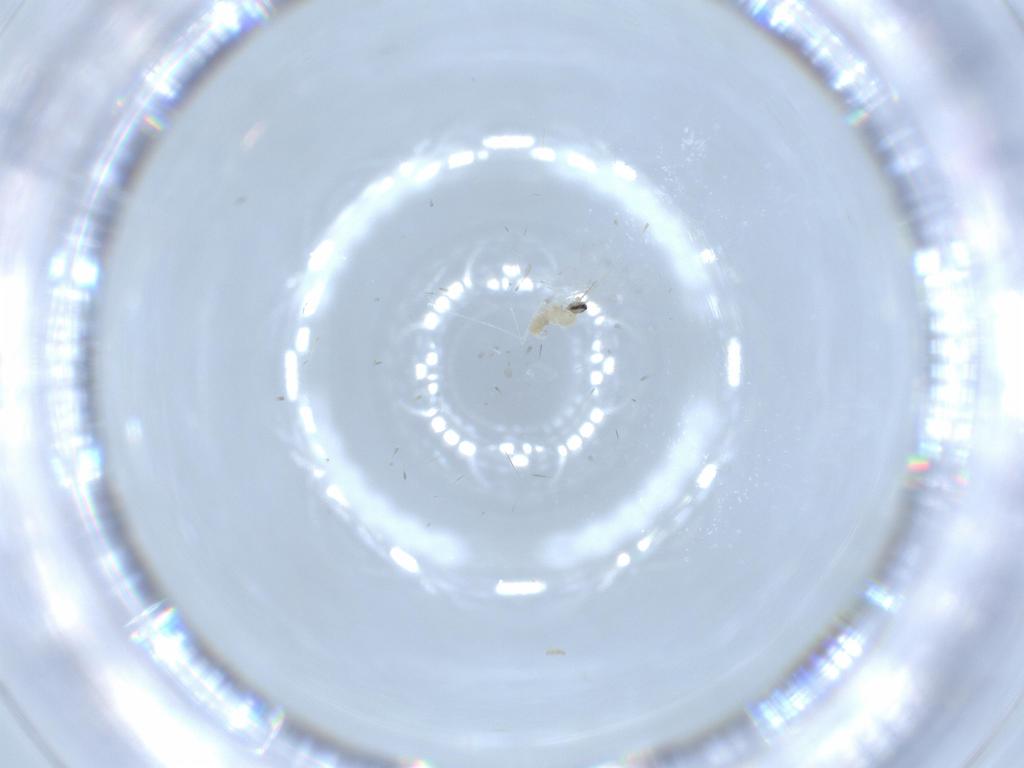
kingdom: Animalia
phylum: Arthropoda
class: Insecta
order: Diptera
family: Cecidomyiidae
